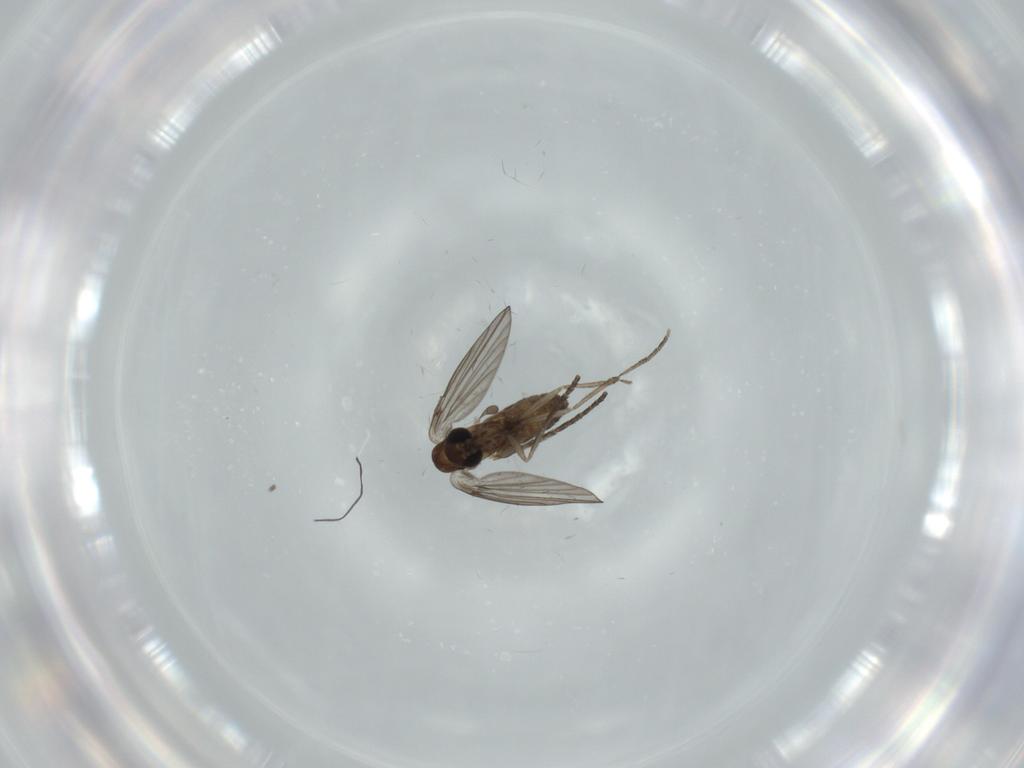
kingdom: Animalia
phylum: Arthropoda
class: Insecta
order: Diptera
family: Psychodidae
